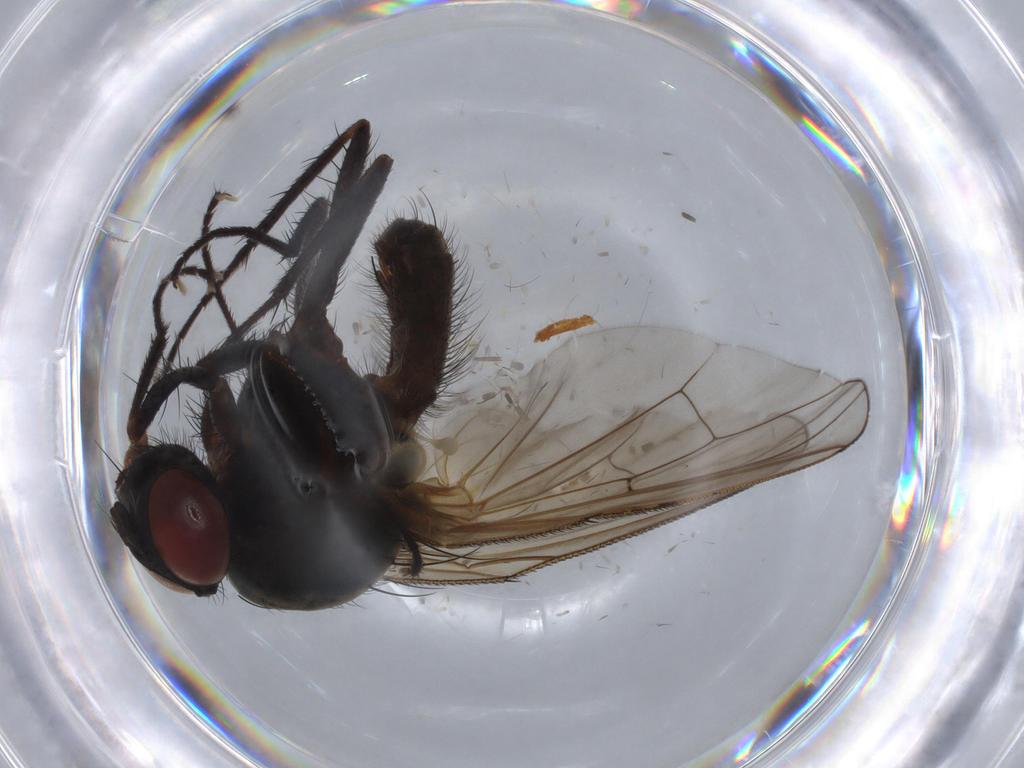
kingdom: Animalia
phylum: Arthropoda
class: Insecta
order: Diptera
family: Anthomyiidae
